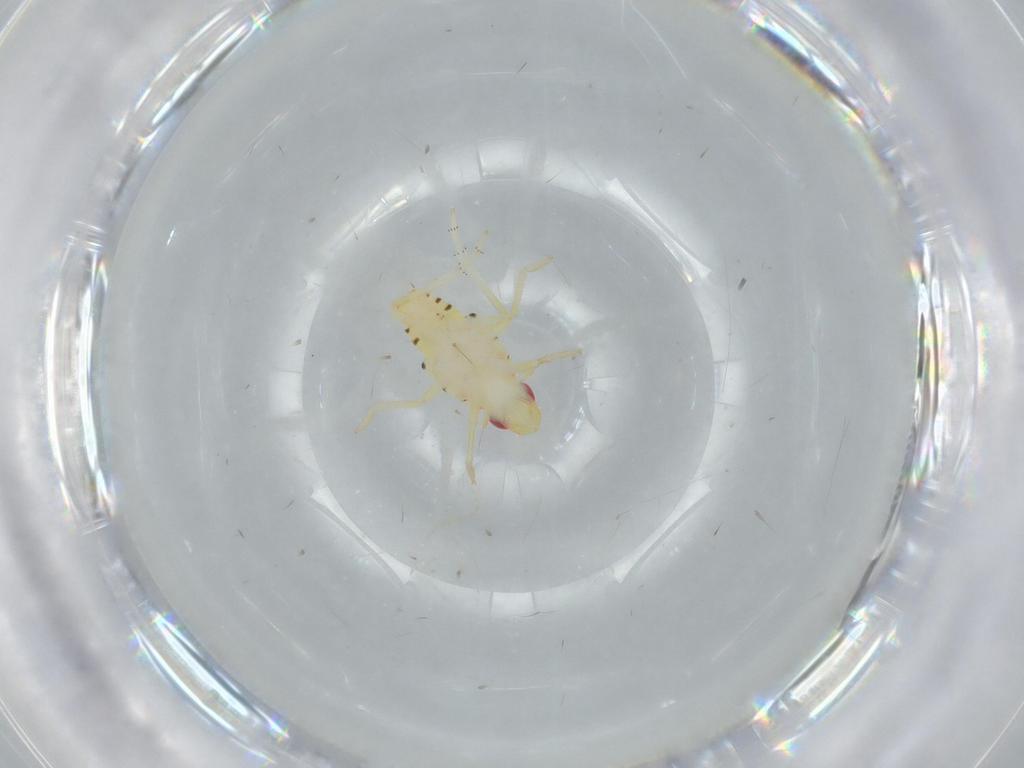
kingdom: Animalia
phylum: Arthropoda
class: Insecta
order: Hemiptera
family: Tropiduchidae
